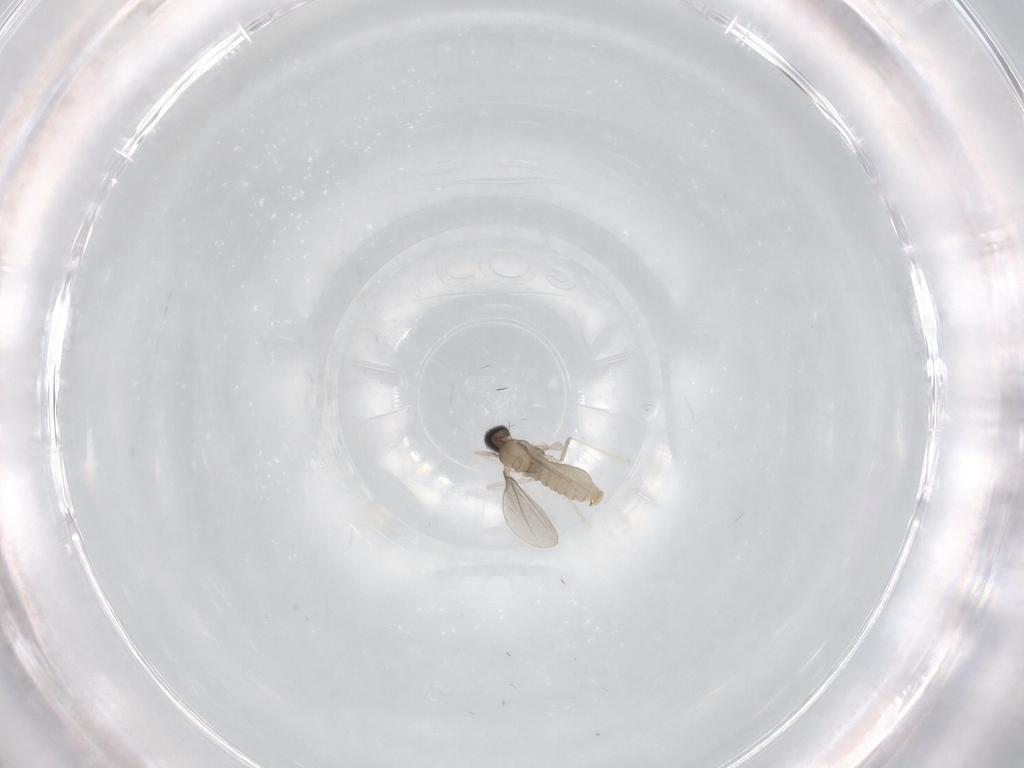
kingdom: Animalia
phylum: Arthropoda
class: Insecta
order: Diptera
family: Cecidomyiidae
